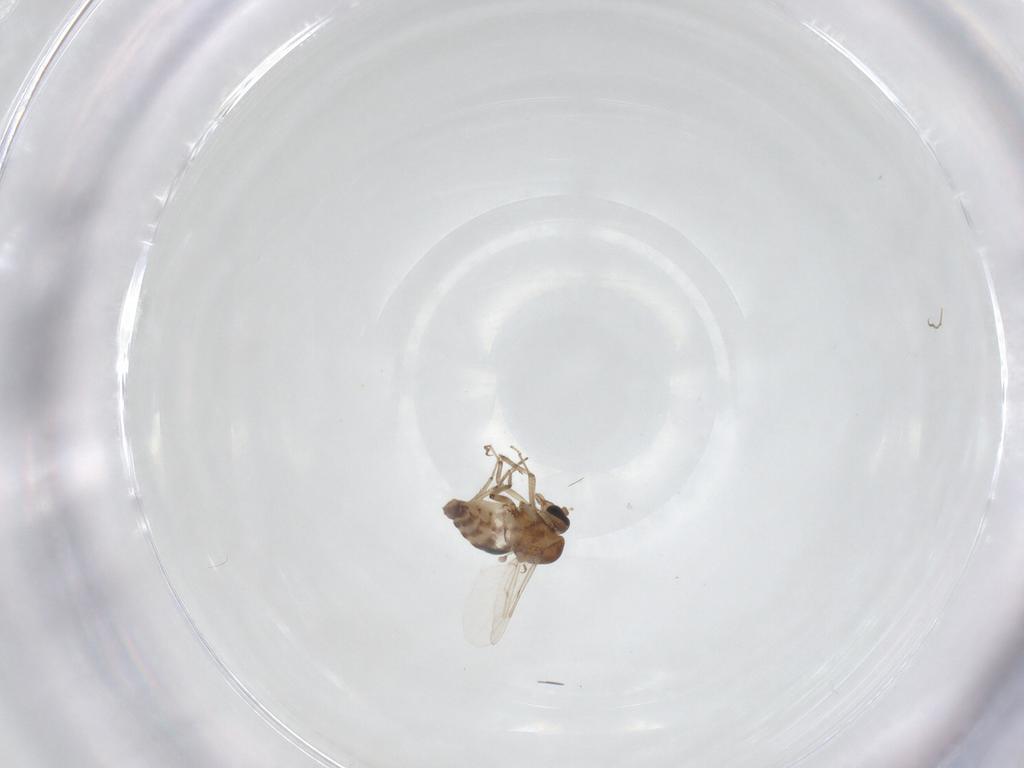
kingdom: Animalia
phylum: Arthropoda
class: Insecta
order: Diptera
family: Ceratopogonidae
